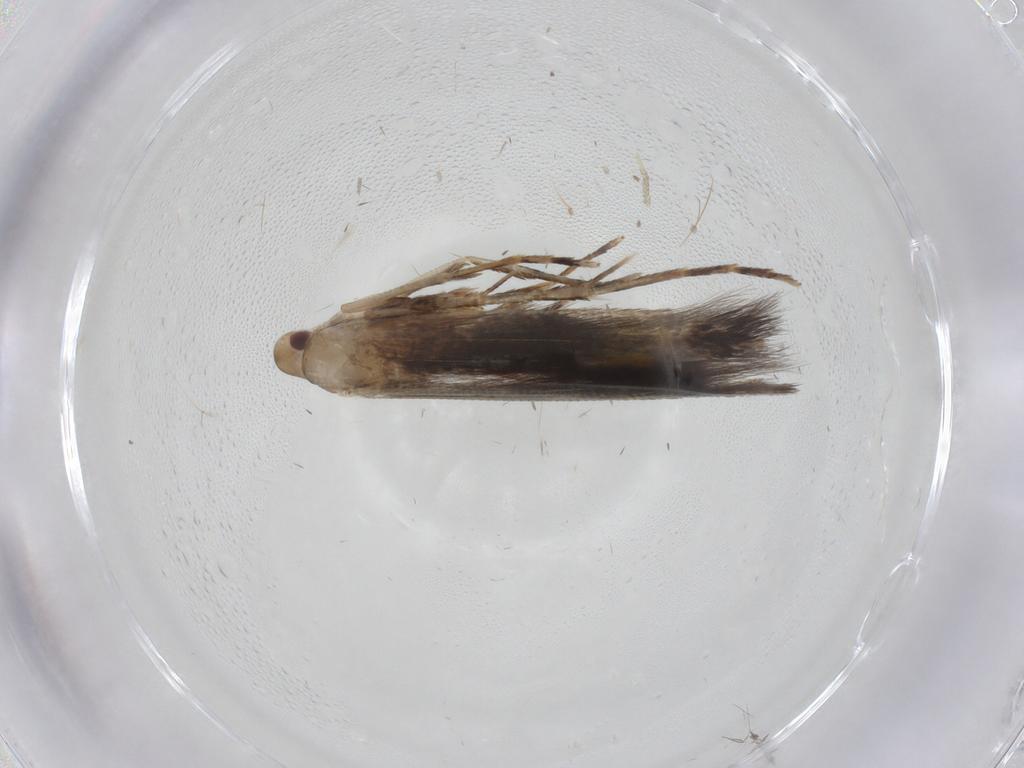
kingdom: Animalia
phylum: Arthropoda
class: Insecta
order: Lepidoptera
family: Cosmopterigidae
